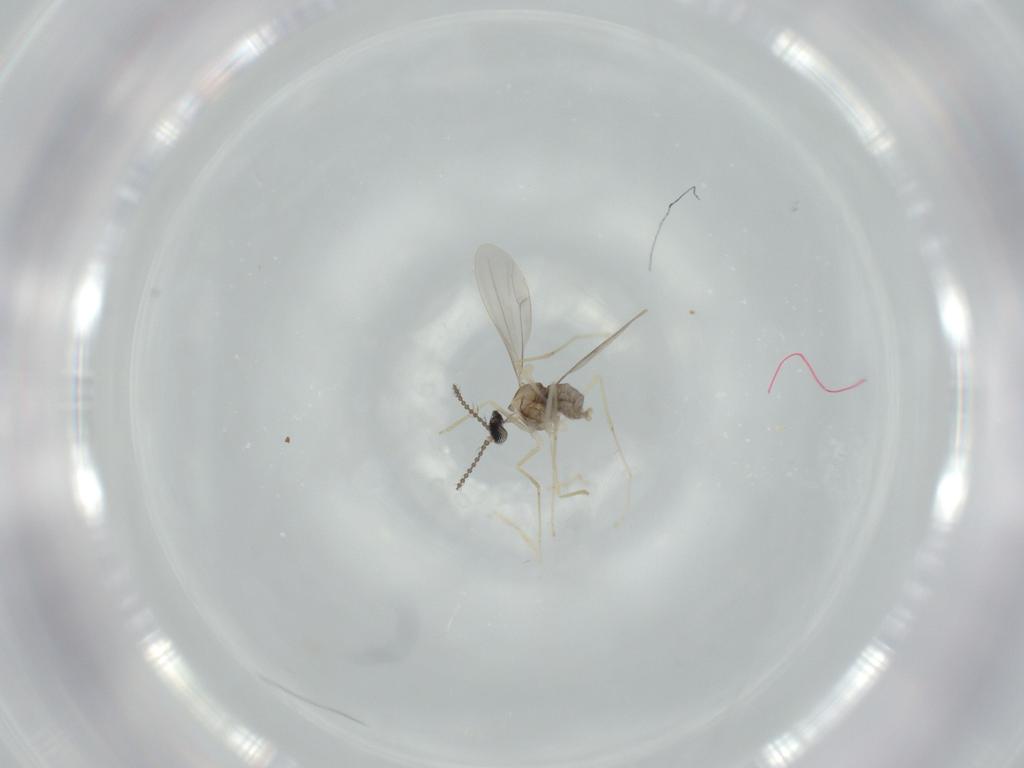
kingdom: Animalia
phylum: Arthropoda
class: Insecta
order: Diptera
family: Cecidomyiidae
